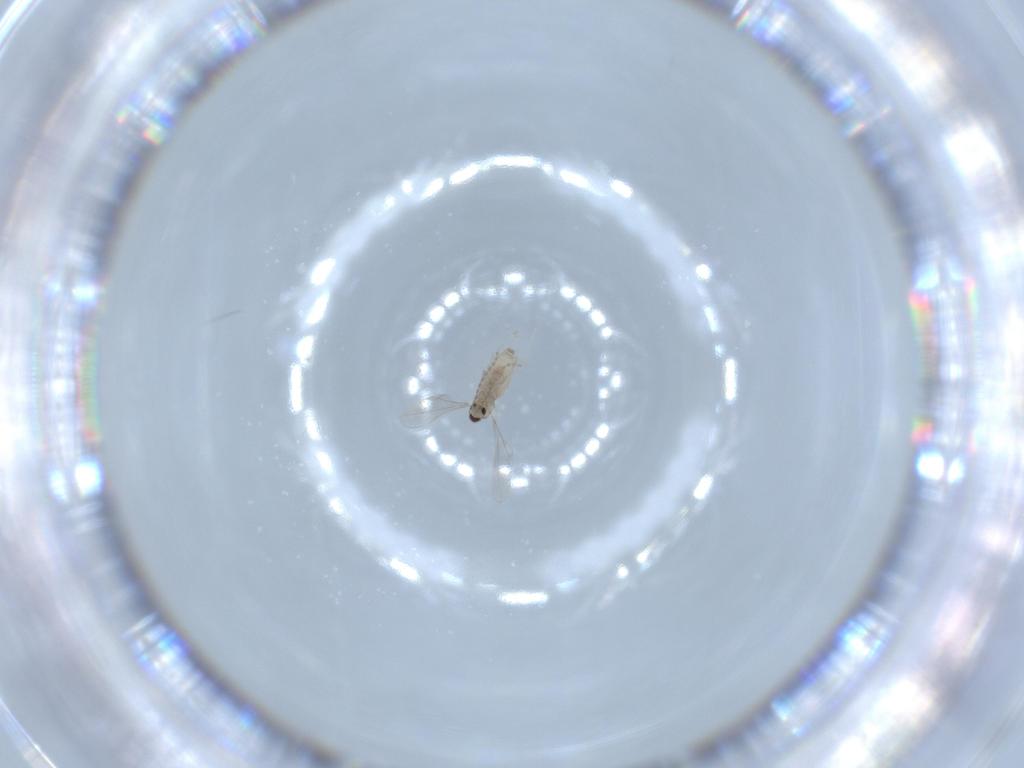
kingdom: Animalia
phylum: Arthropoda
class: Insecta
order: Diptera
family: Cecidomyiidae
